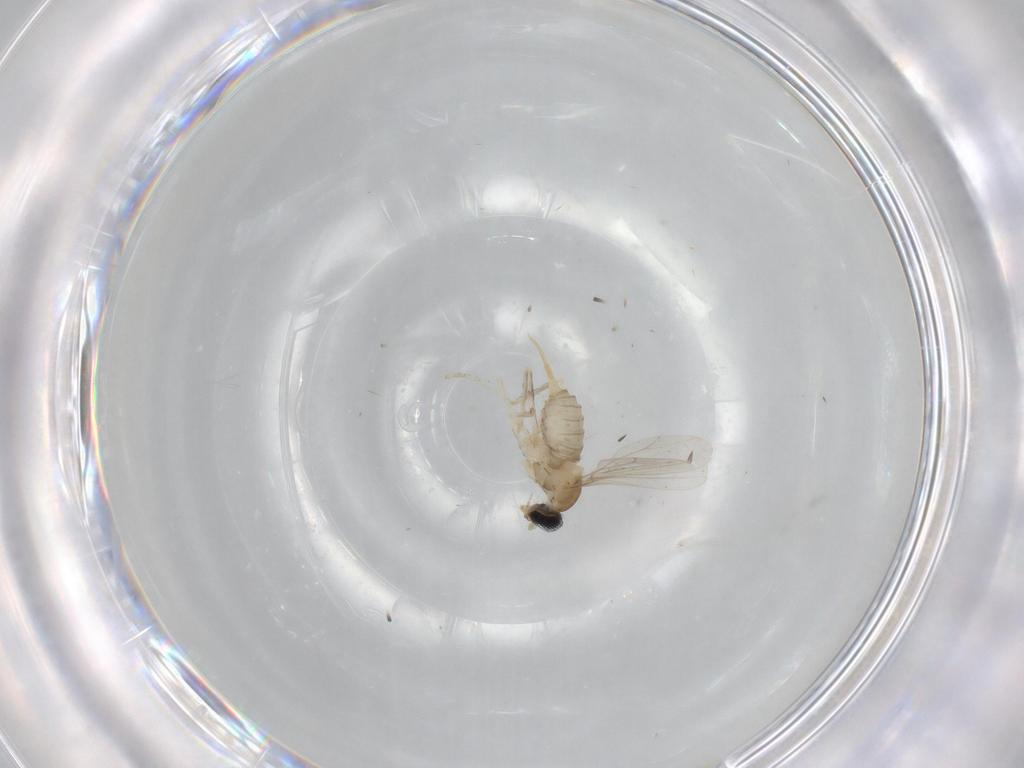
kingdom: Animalia
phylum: Arthropoda
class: Insecta
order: Diptera
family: Cecidomyiidae
